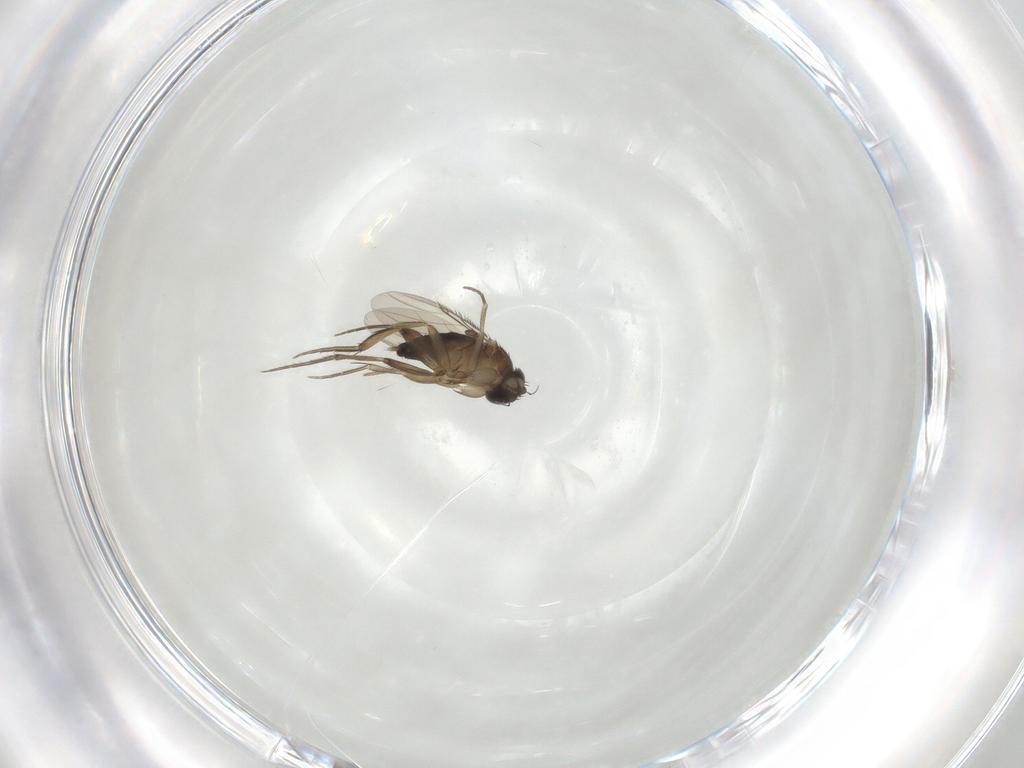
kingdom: Animalia
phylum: Arthropoda
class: Insecta
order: Diptera
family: Phoridae
